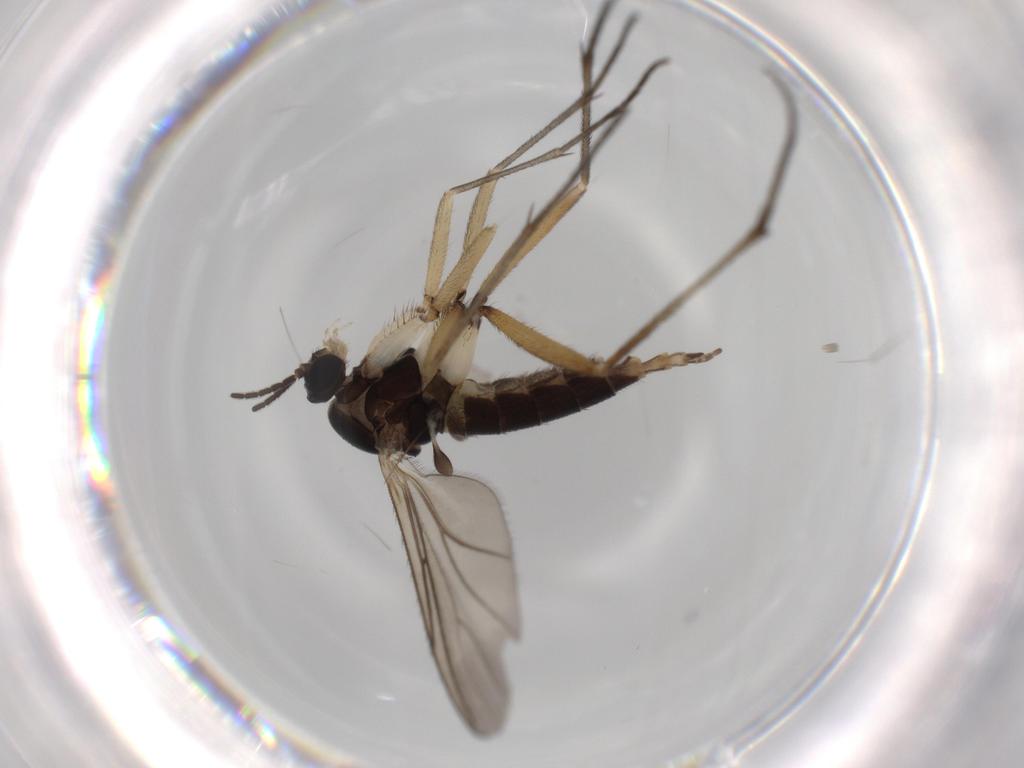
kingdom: Animalia
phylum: Arthropoda
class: Insecta
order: Diptera
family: Sciaridae
